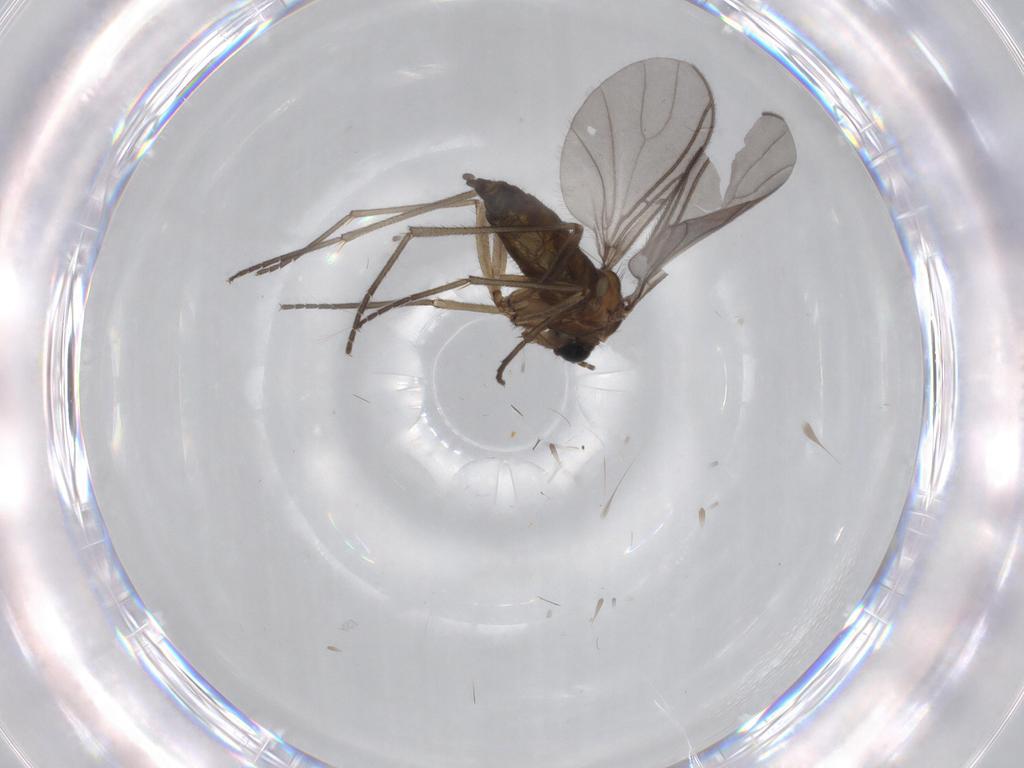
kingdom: Animalia
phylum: Arthropoda
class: Insecta
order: Diptera
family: Sciaridae
